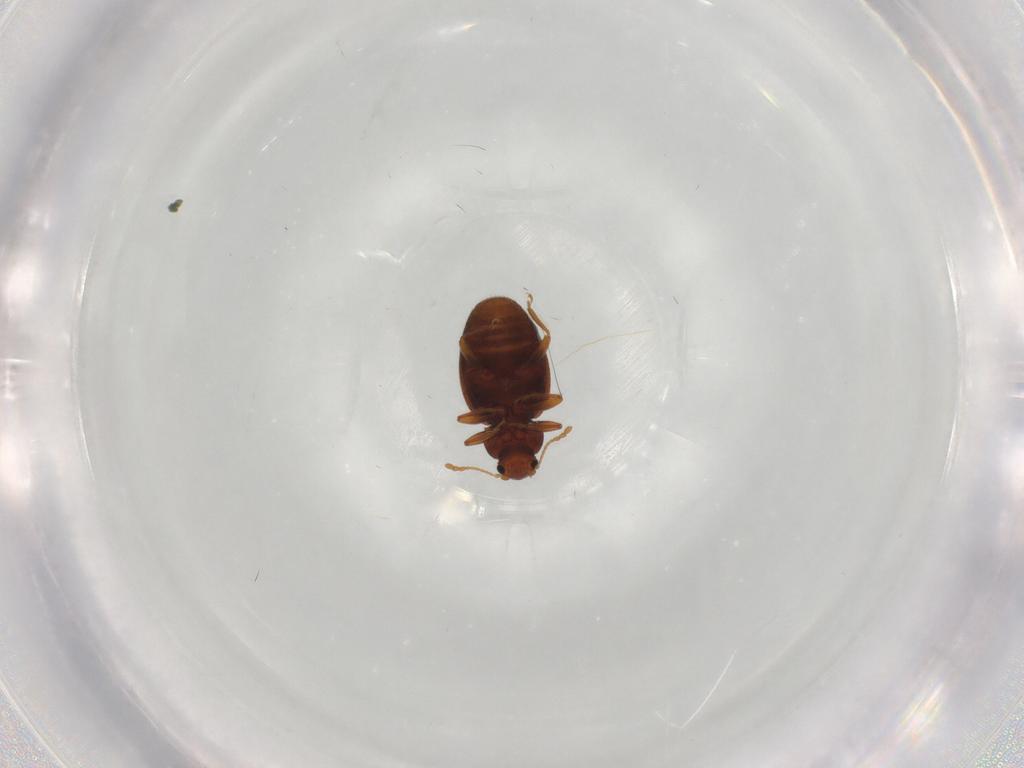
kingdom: Animalia
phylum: Arthropoda
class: Insecta
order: Coleoptera
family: Latridiidae
